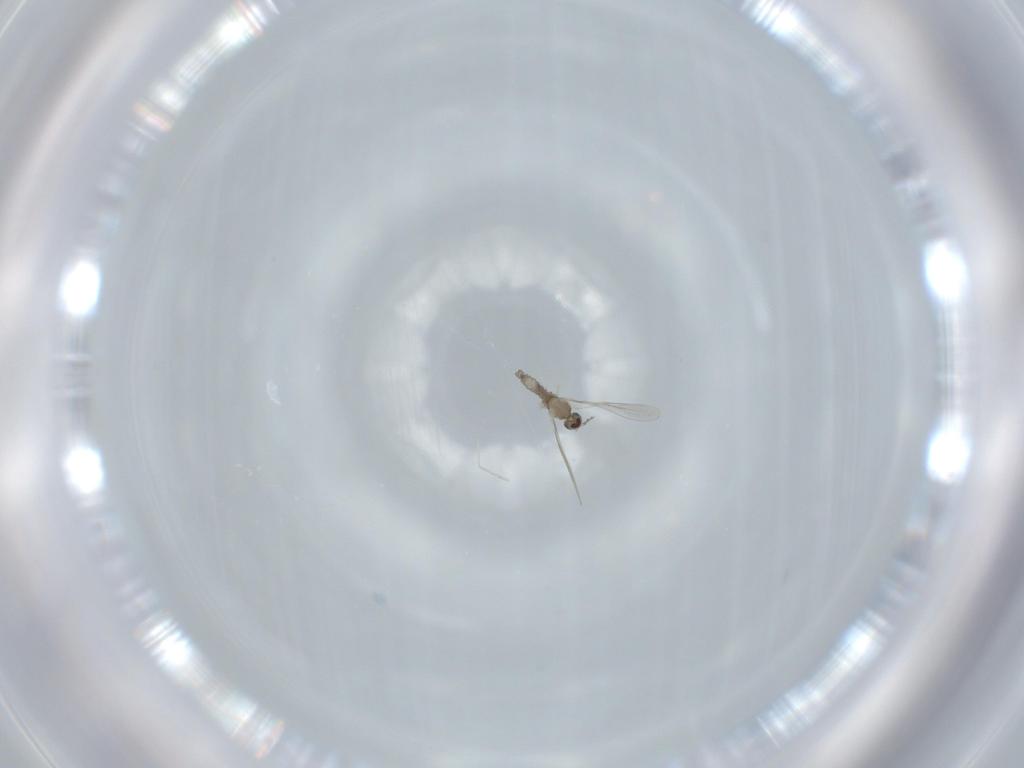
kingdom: Animalia
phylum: Arthropoda
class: Insecta
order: Diptera
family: Cecidomyiidae
